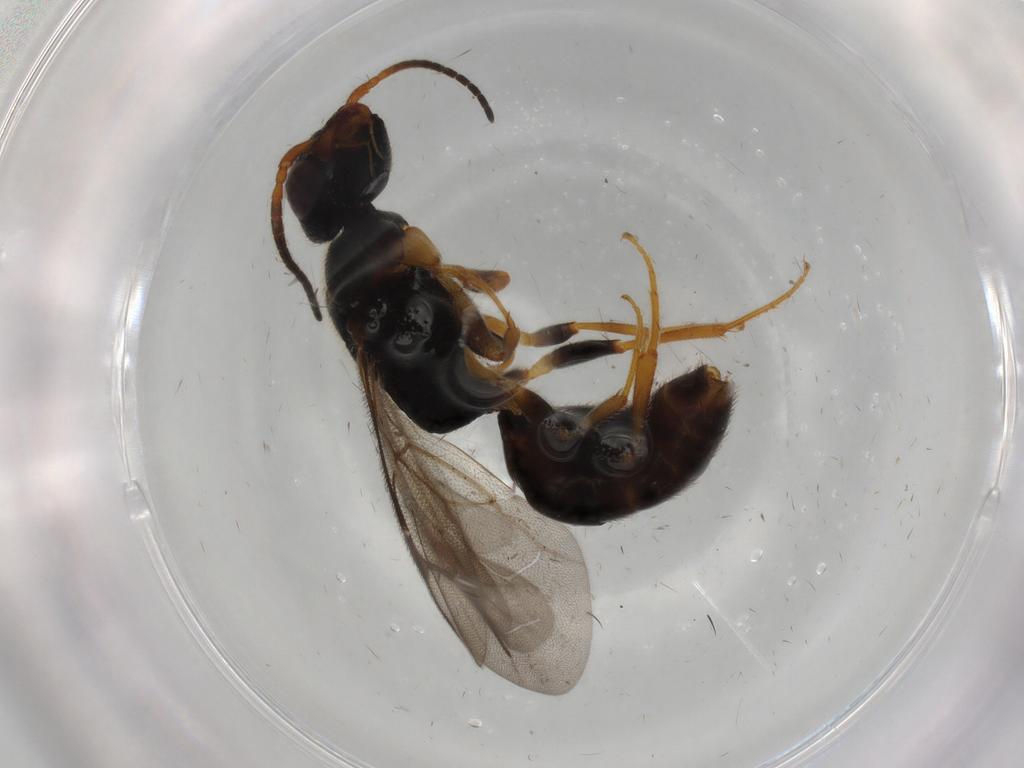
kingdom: Animalia
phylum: Arthropoda
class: Insecta
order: Hymenoptera
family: Bethylidae
